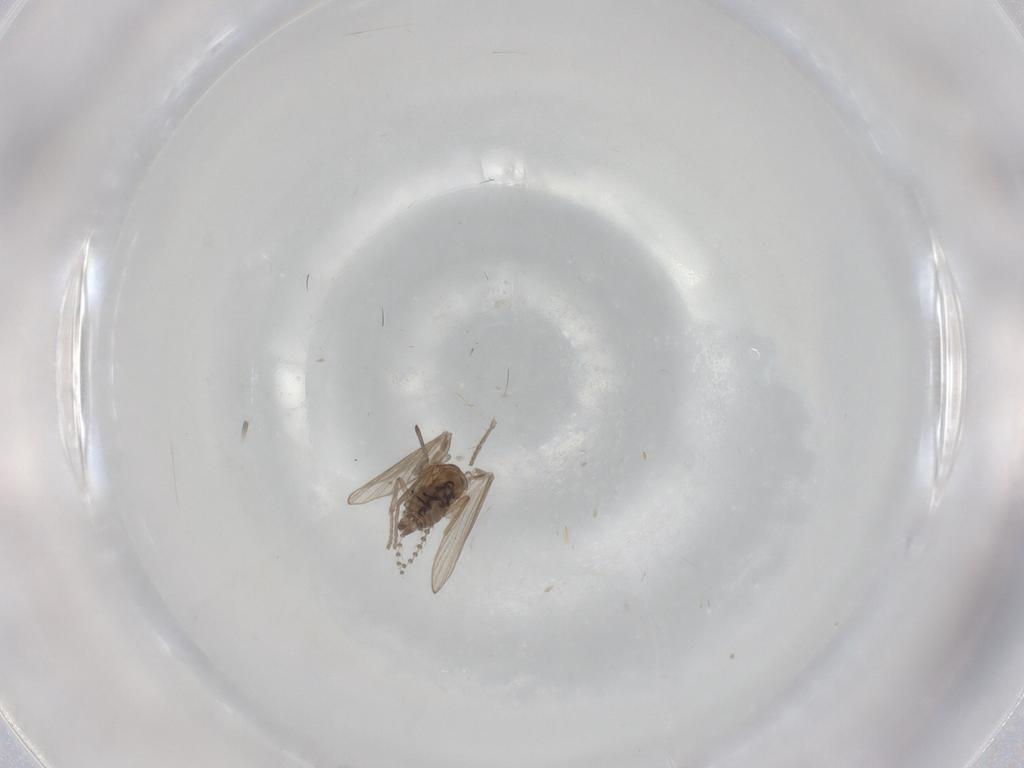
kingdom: Animalia
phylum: Arthropoda
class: Insecta
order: Diptera
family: Psychodidae
